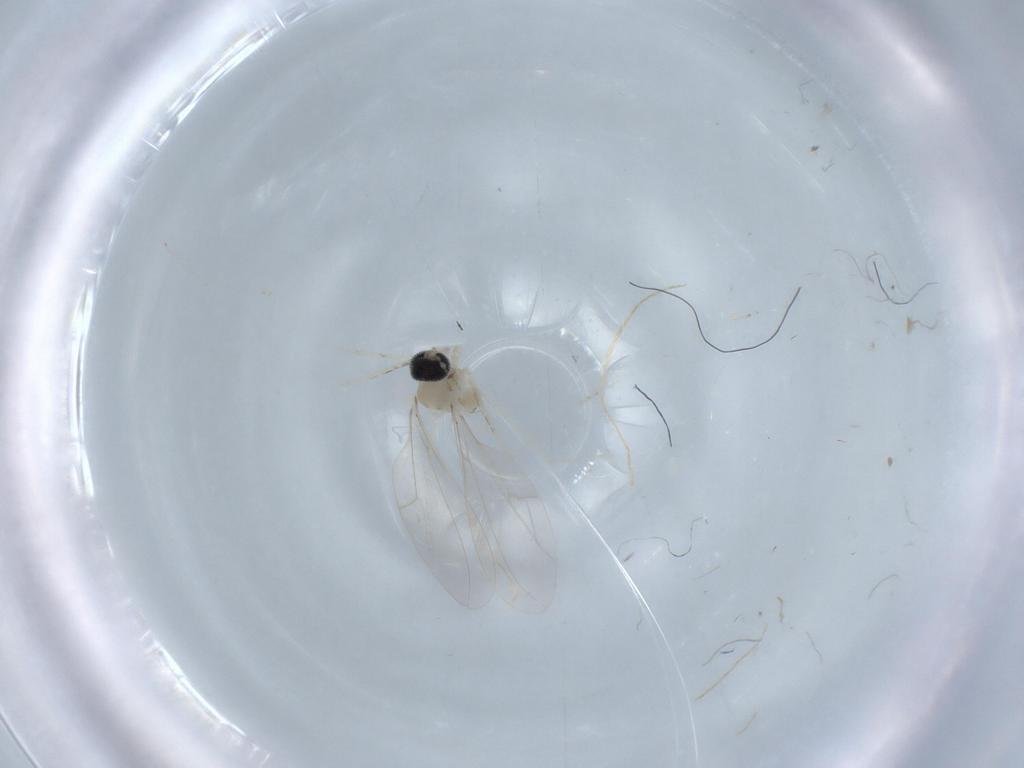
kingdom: Animalia
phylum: Arthropoda
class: Insecta
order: Diptera
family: Cecidomyiidae
